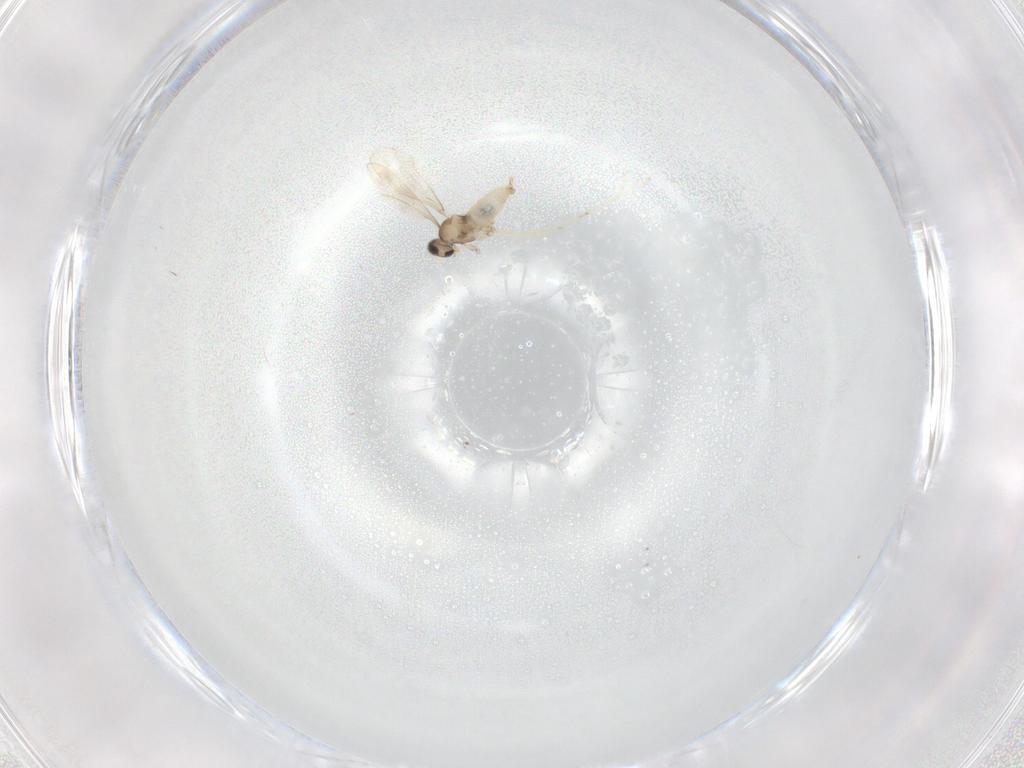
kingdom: Animalia
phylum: Arthropoda
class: Insecta
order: Diptera
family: Cecidomyiidae
